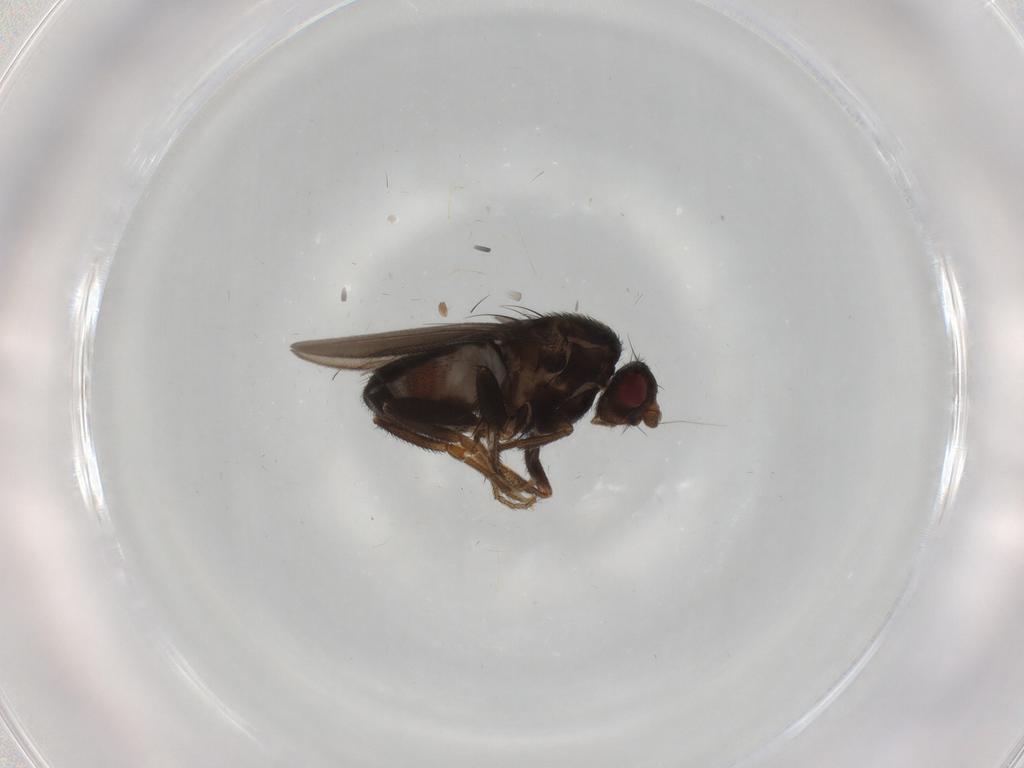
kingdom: Animalia
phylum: Arthropoda
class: Insecta
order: Diptera
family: Sphaeroceridae
